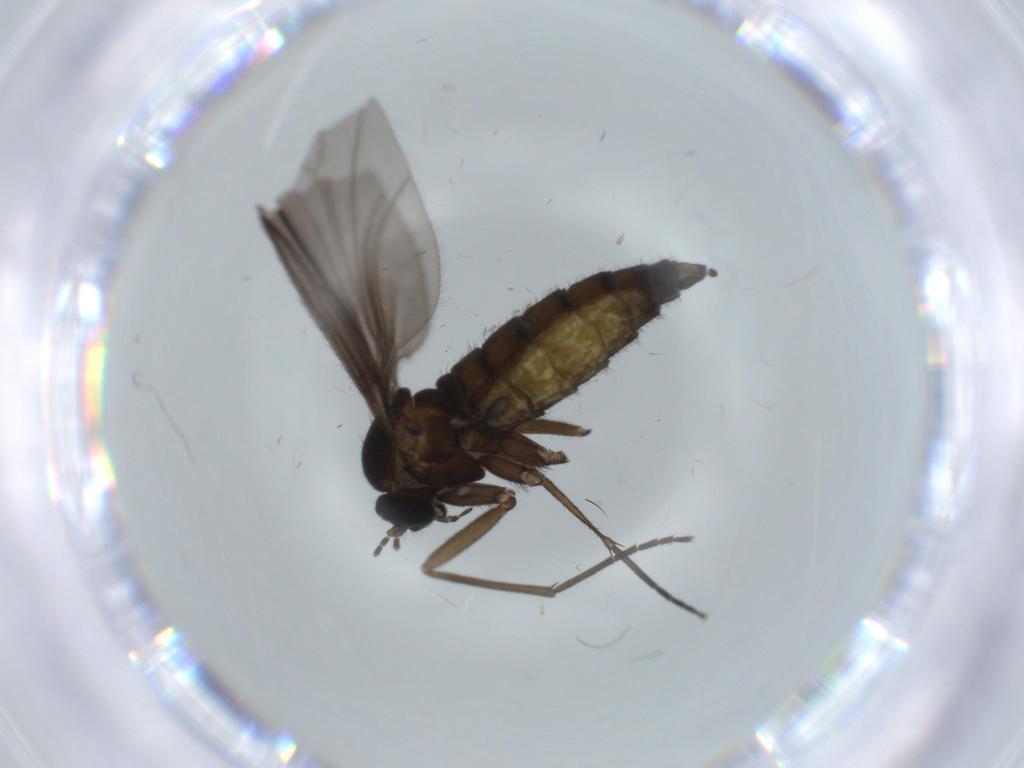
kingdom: Animalia
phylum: Arthropoda
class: Insecta
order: Diptera
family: Sciaridae
